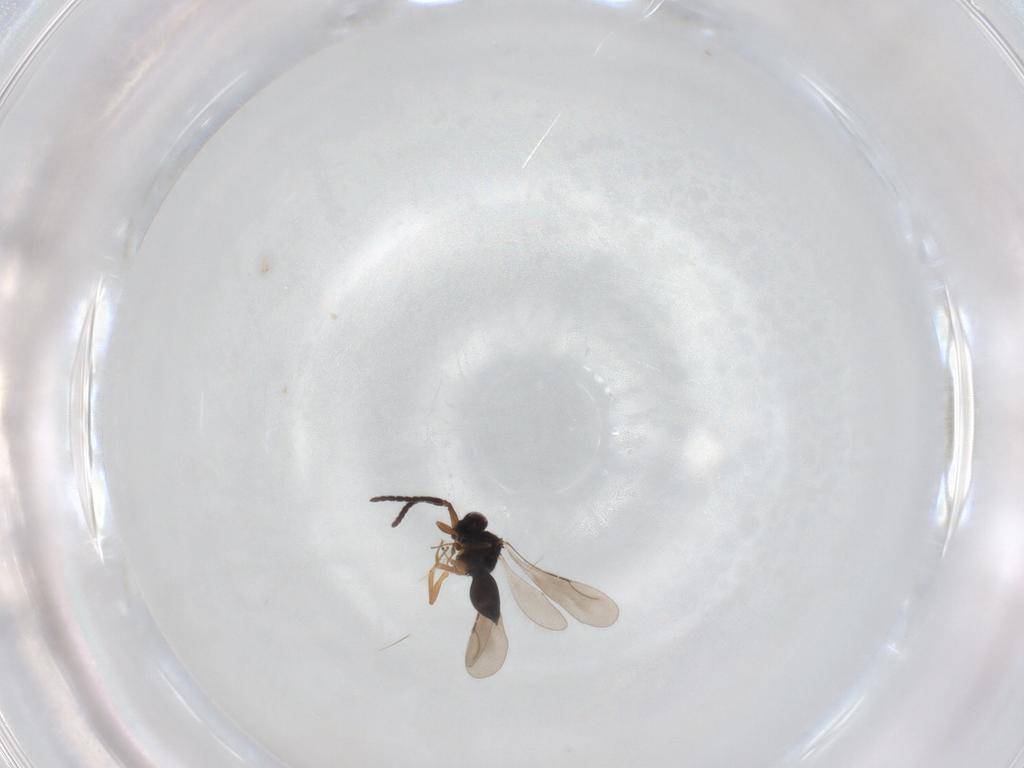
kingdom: Animalia
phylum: Arthropoda
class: Insecta
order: Hymenoptera
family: Ceraphronidae
